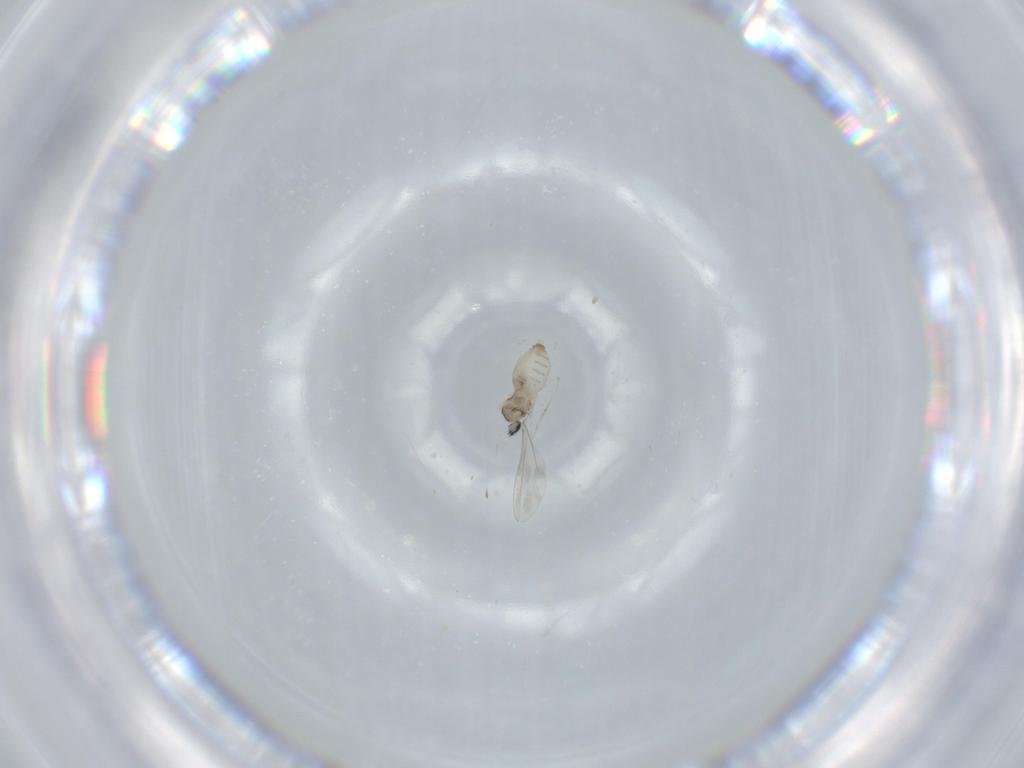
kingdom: Animalia
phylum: Arthropoda
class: Insecta
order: Diptera
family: Cecidomyiidae
